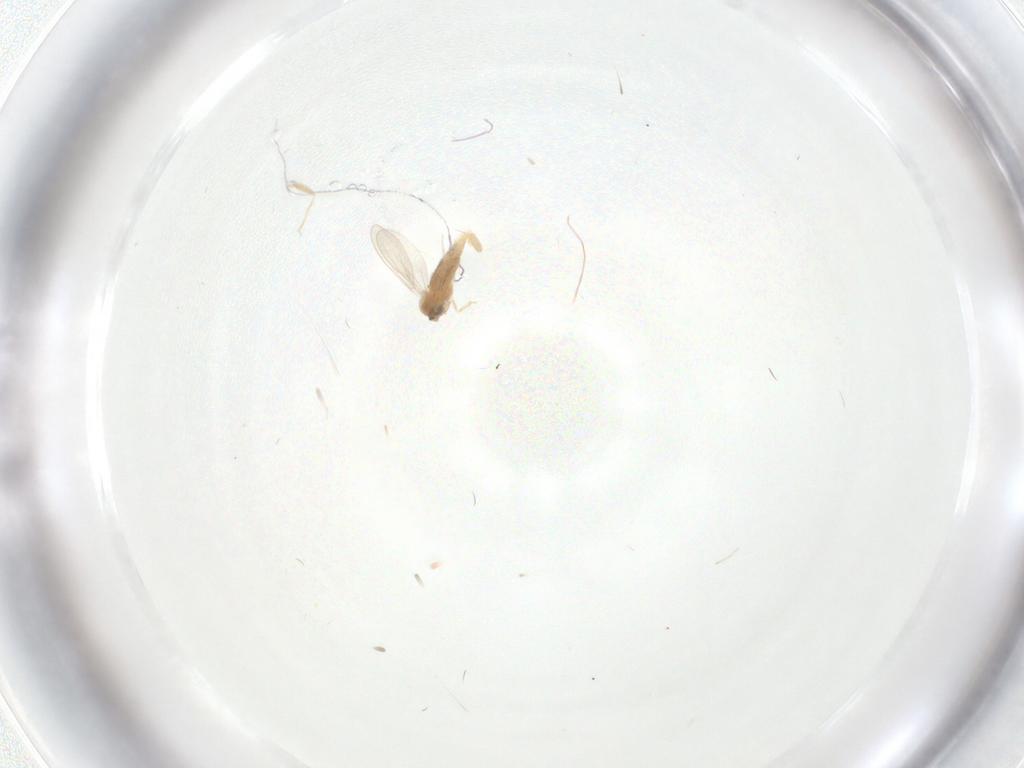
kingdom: Animalia
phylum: Arthropoda
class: Insecta
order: Diptera
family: Cecidomyiidae
